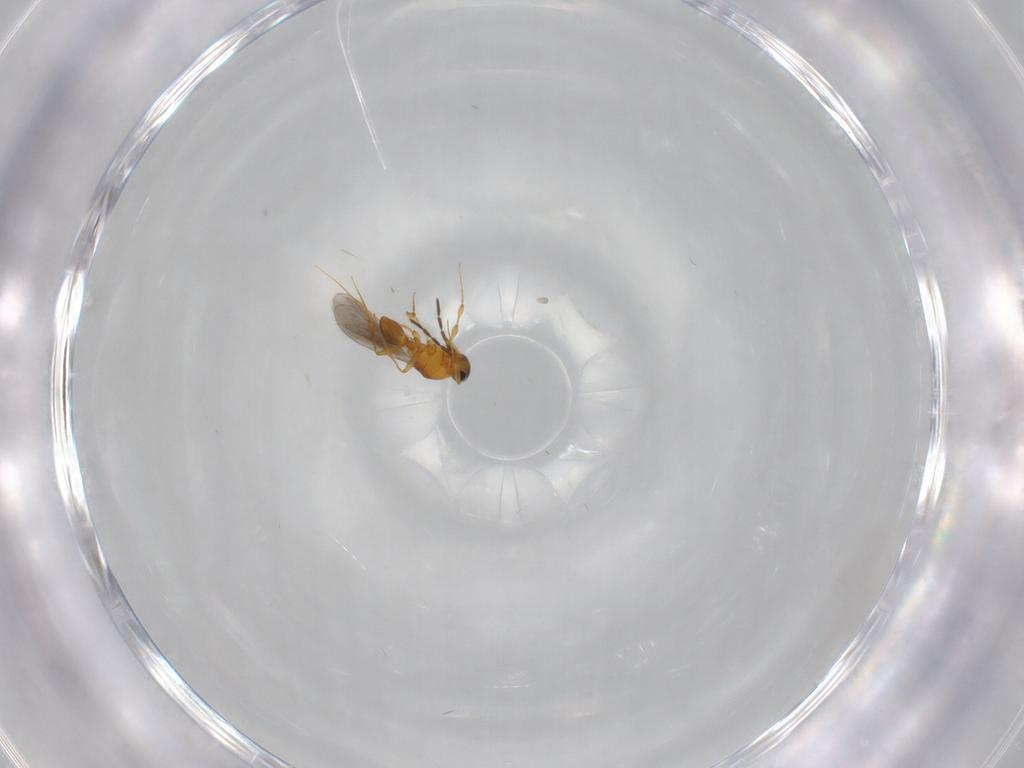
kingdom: Animalia
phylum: Arthropoda
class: Insecta
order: Hymenoptera
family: Platygastridae
